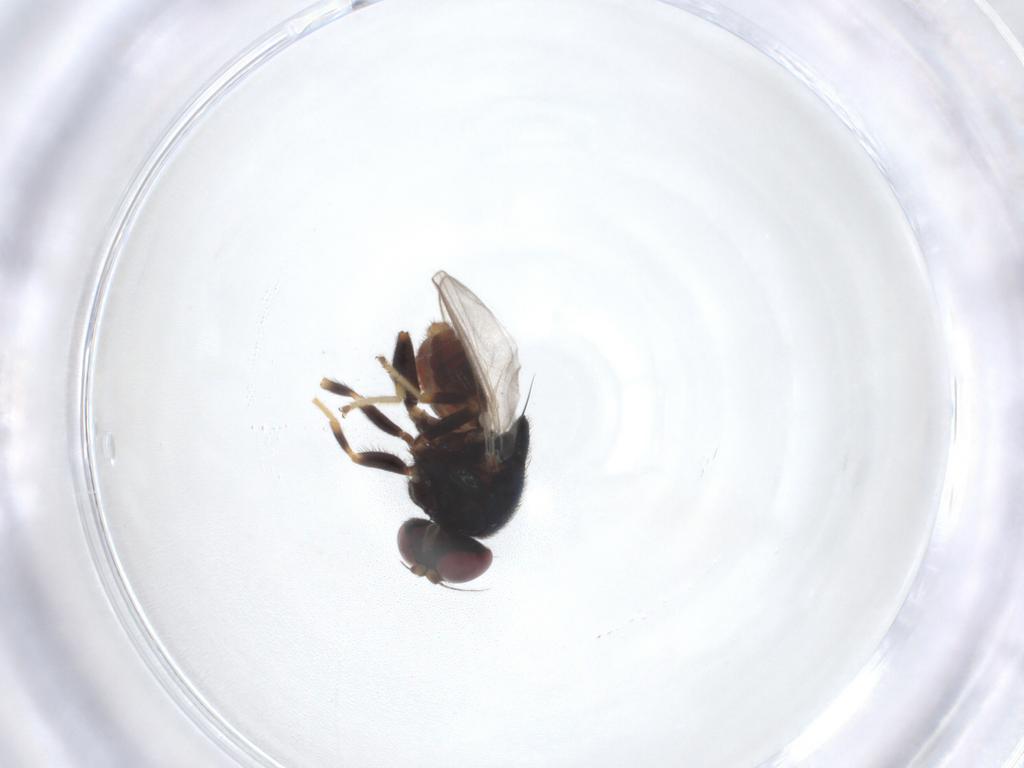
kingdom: Animalia
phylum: Arthropoda
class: Insecta
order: Diptera
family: Chloropidae
